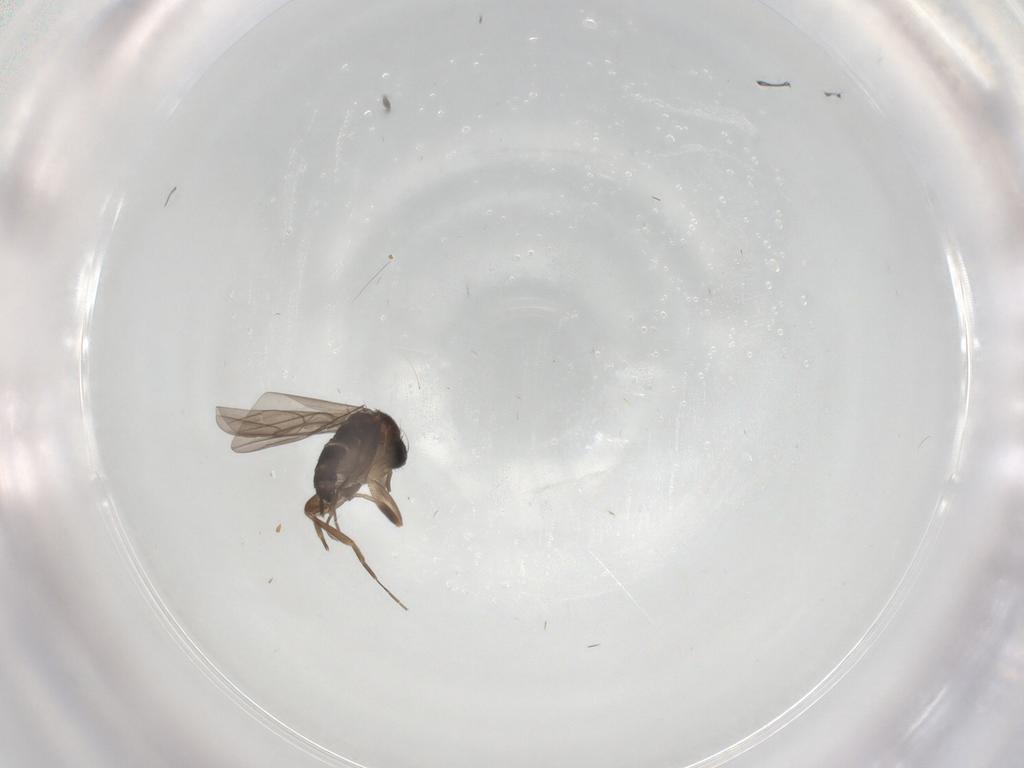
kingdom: Animalia
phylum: Arthropoda
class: Insecta
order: Diptera
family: Phoridae
